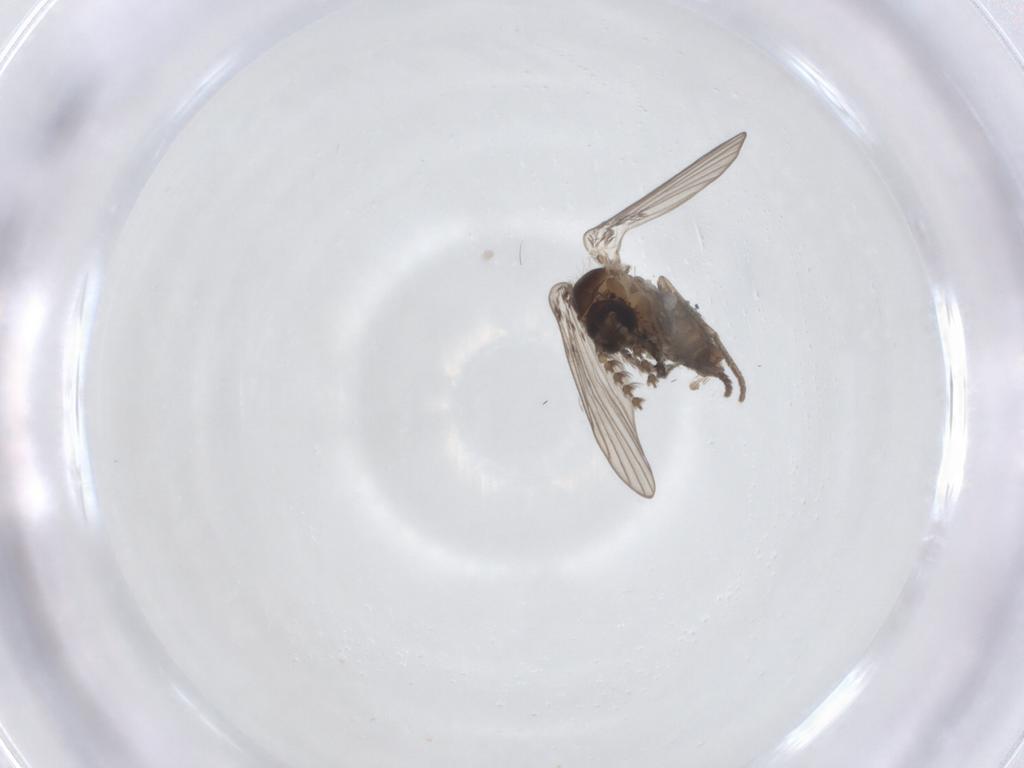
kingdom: Animalia
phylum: Arthropoda
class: Insecta
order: Diptera
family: Psychodidae
